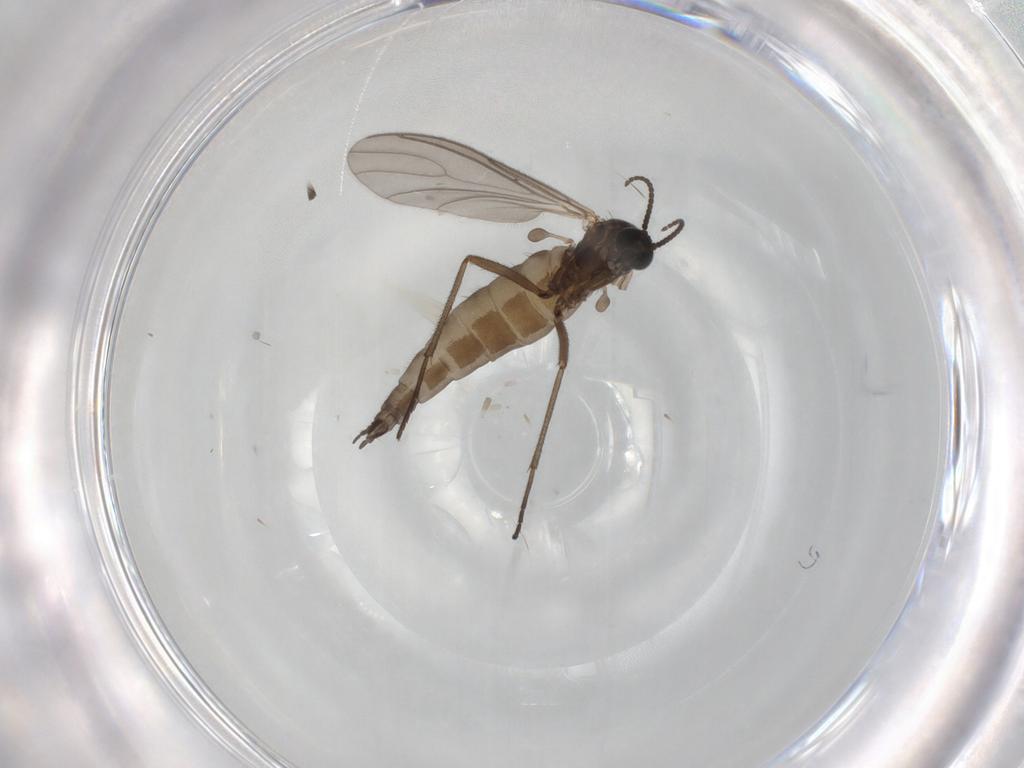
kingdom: Animalia
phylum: Arthropoda
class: Insecta
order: Diptera
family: Sciaridae
